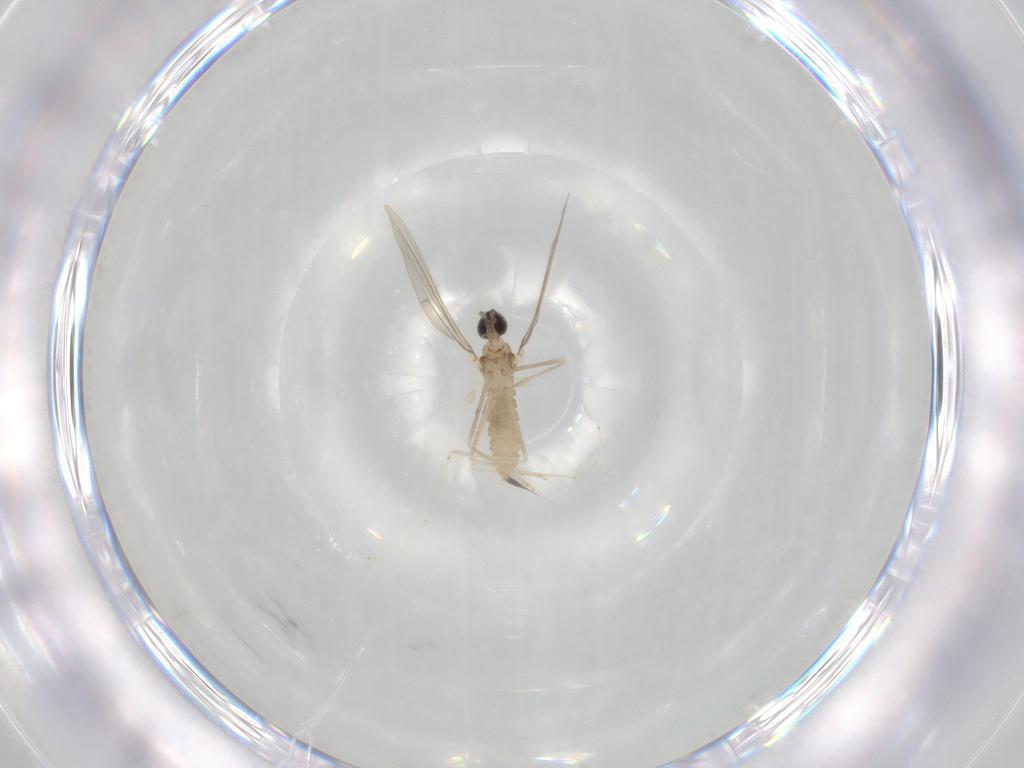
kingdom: Animalia
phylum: Arthropoda
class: Insecta
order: Diptera
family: Cecidomyiidae
